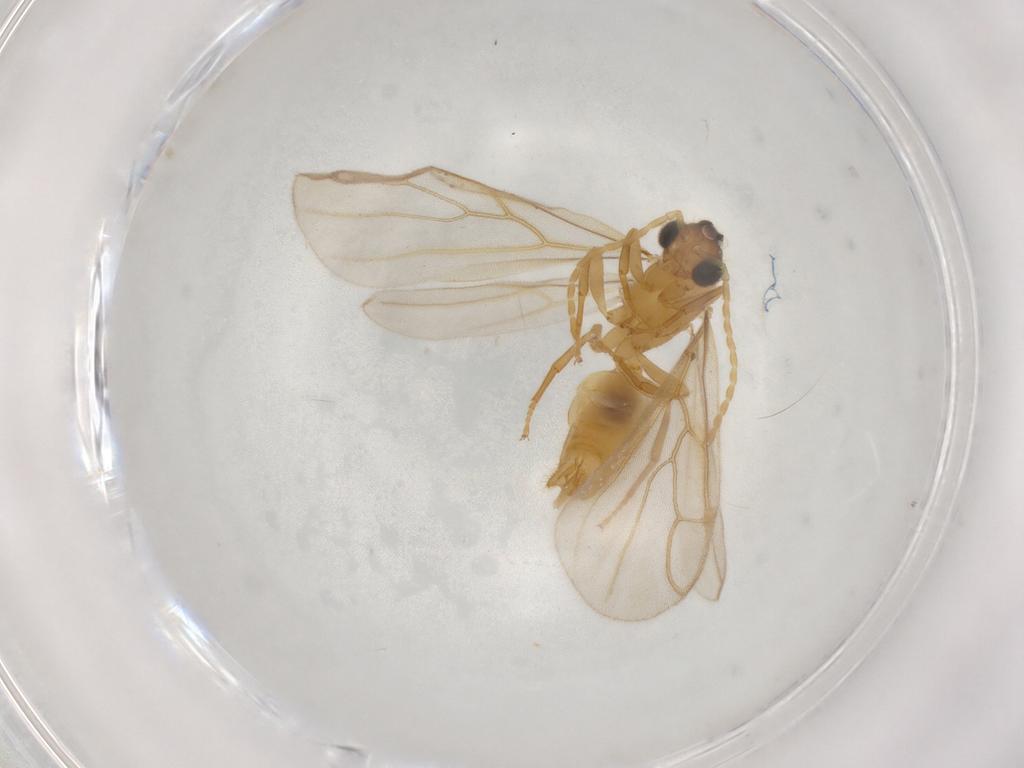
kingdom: Animalia
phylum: Arthropoda
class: Insecta
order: Hymenoptera
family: Formicidae
